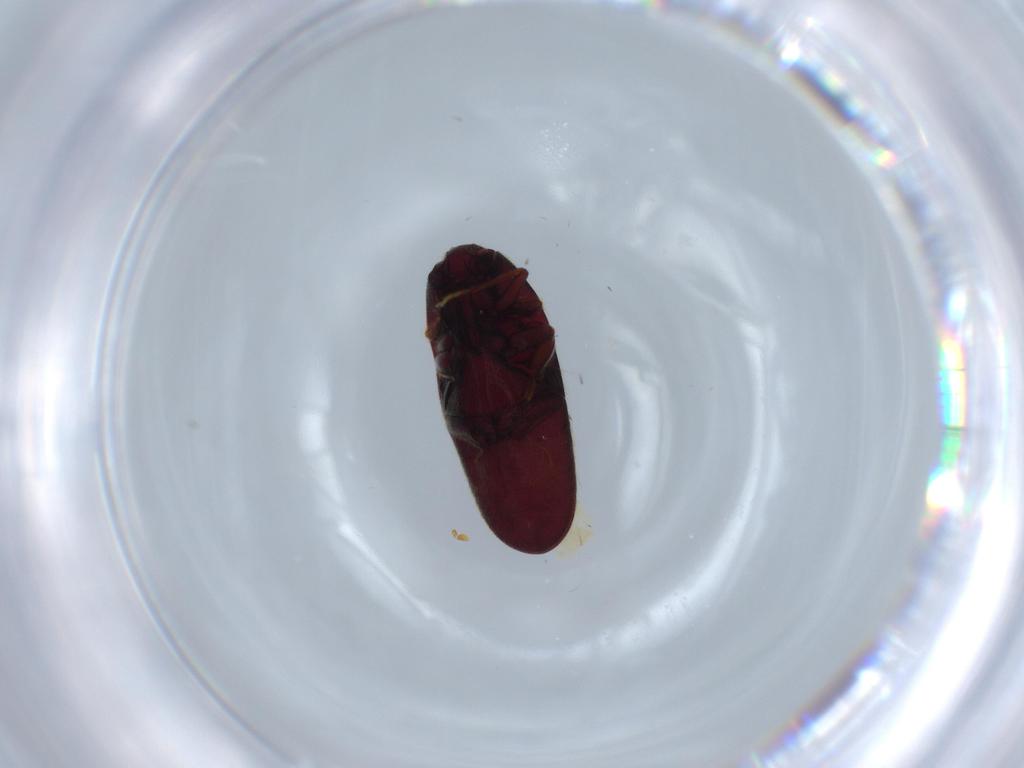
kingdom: Animalia
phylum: Arthropoda
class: Insecta
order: Coleoptera
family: Throscidae
